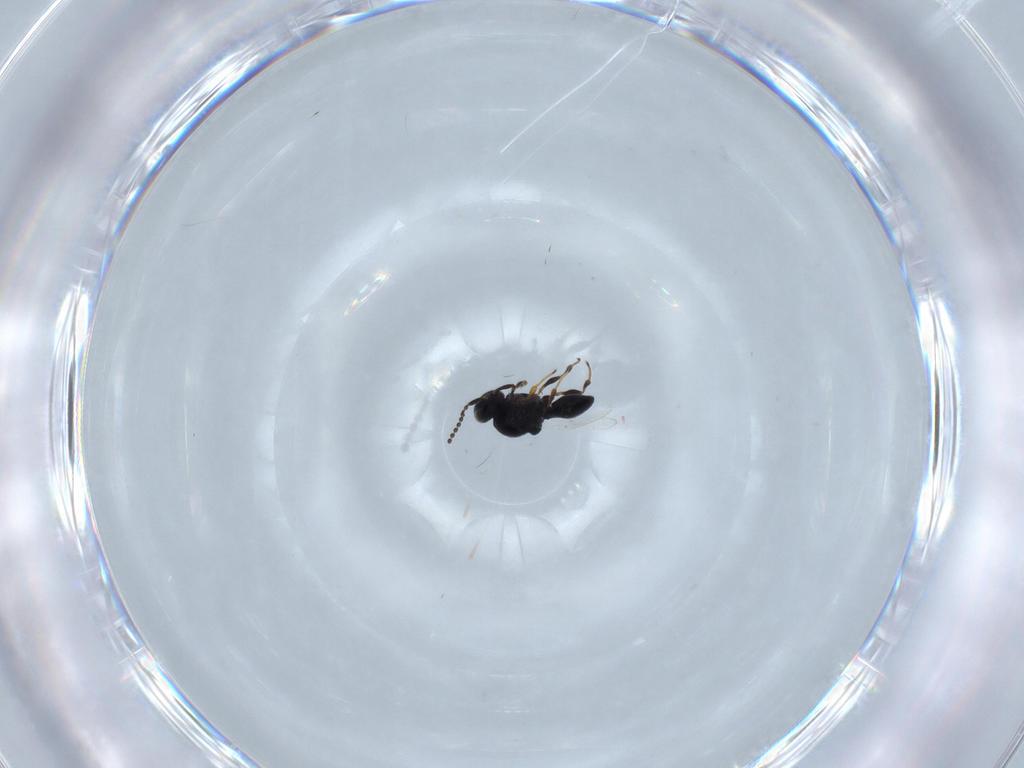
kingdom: Animalia
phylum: Arthropoda
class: Insecta
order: Hymenoptera
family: Platygastridae
